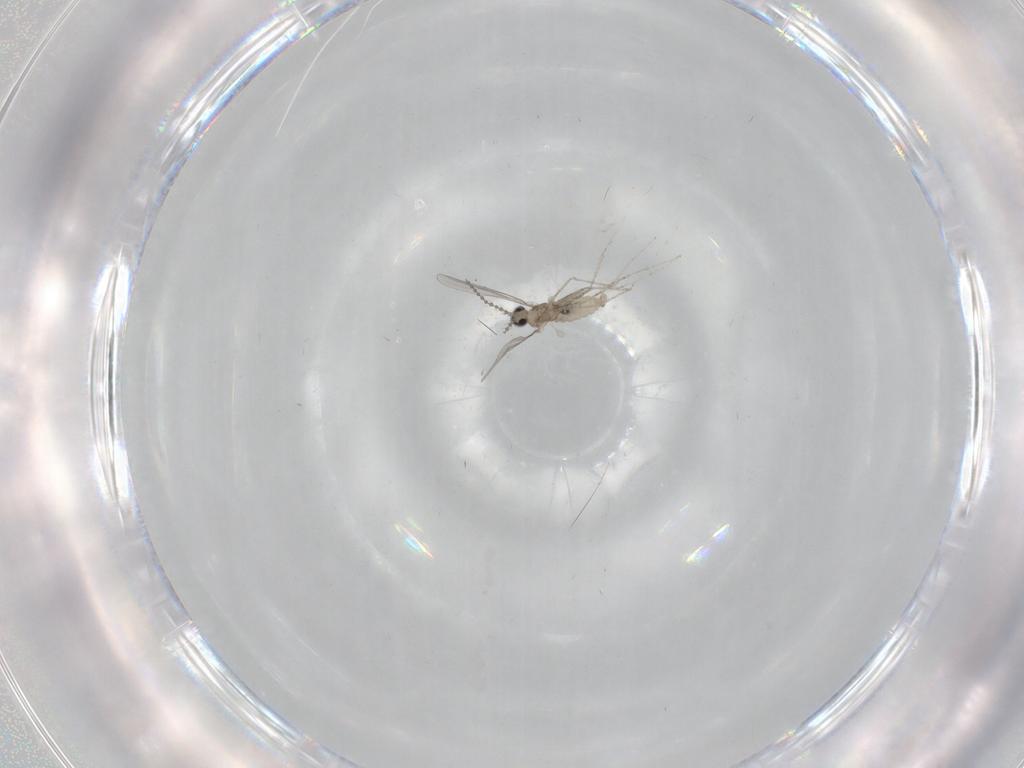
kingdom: Animalia
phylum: Arthropoda
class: Insecta
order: Diptera
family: Cecidomyiidae
